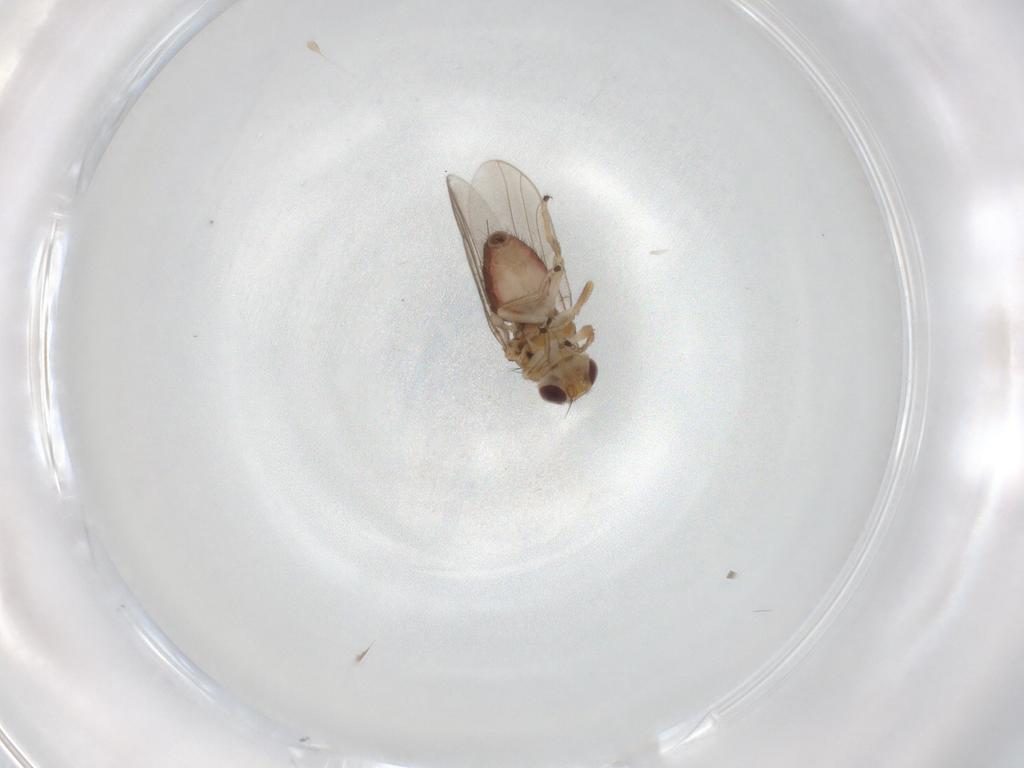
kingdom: Animalia
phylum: Arthropoda
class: Insecta
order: Diptera
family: Chloropidae
